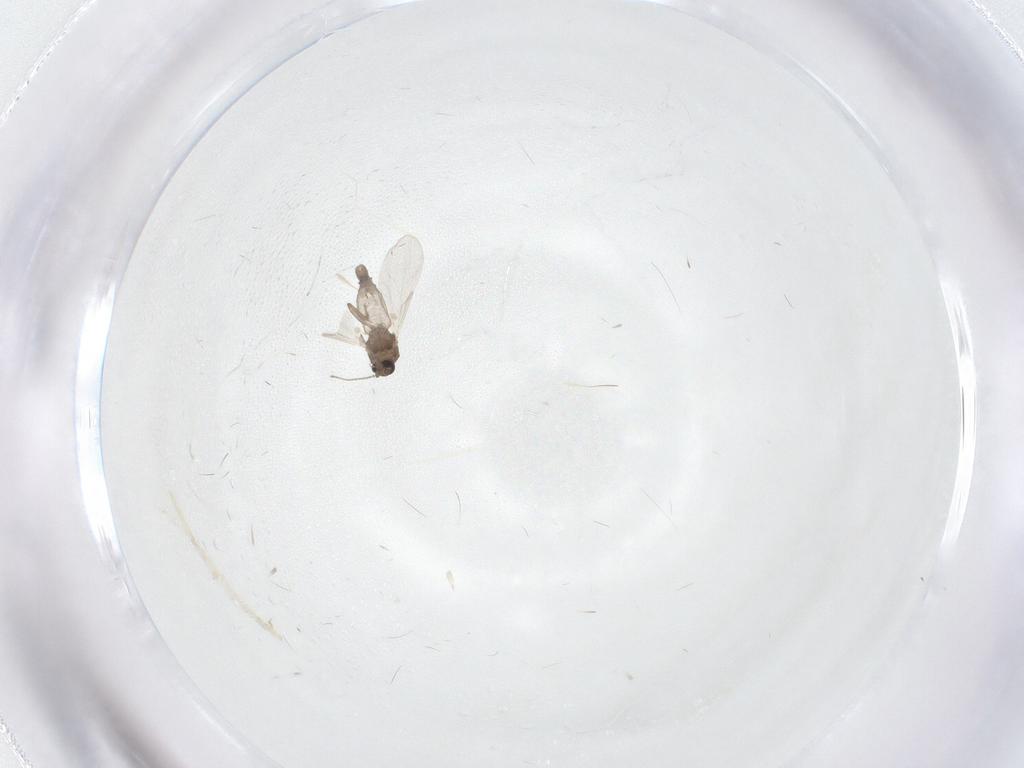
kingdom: Animalia
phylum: Arthropoda
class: Insecta
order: Diptera
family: Ceratopogonidae
